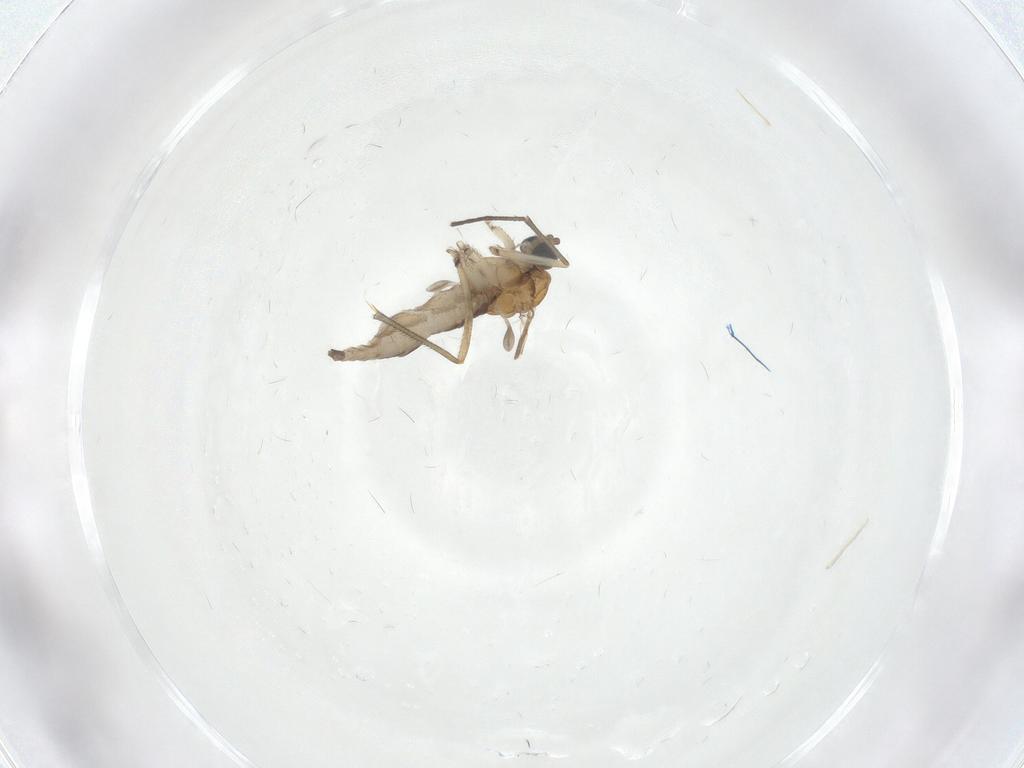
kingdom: Animalia
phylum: Arthropoda
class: Insecta
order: Diptera
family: Sciaridae
